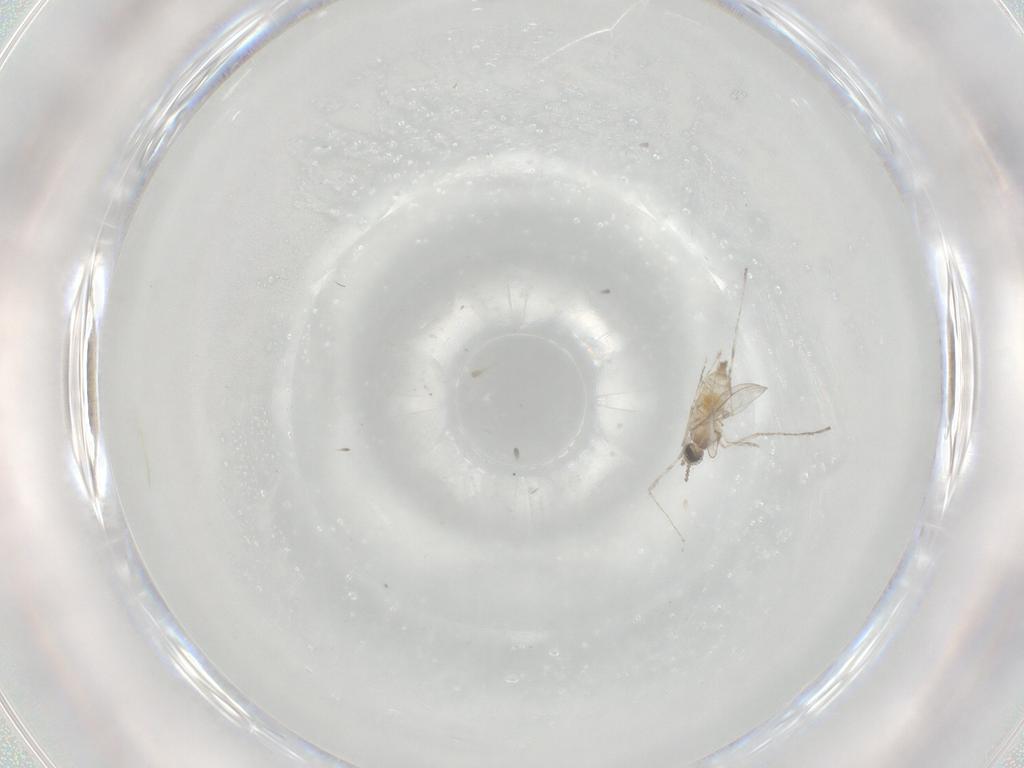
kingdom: Animalia
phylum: Arthropoda
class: Insecta
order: Diptera
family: Cecidomyiidae
